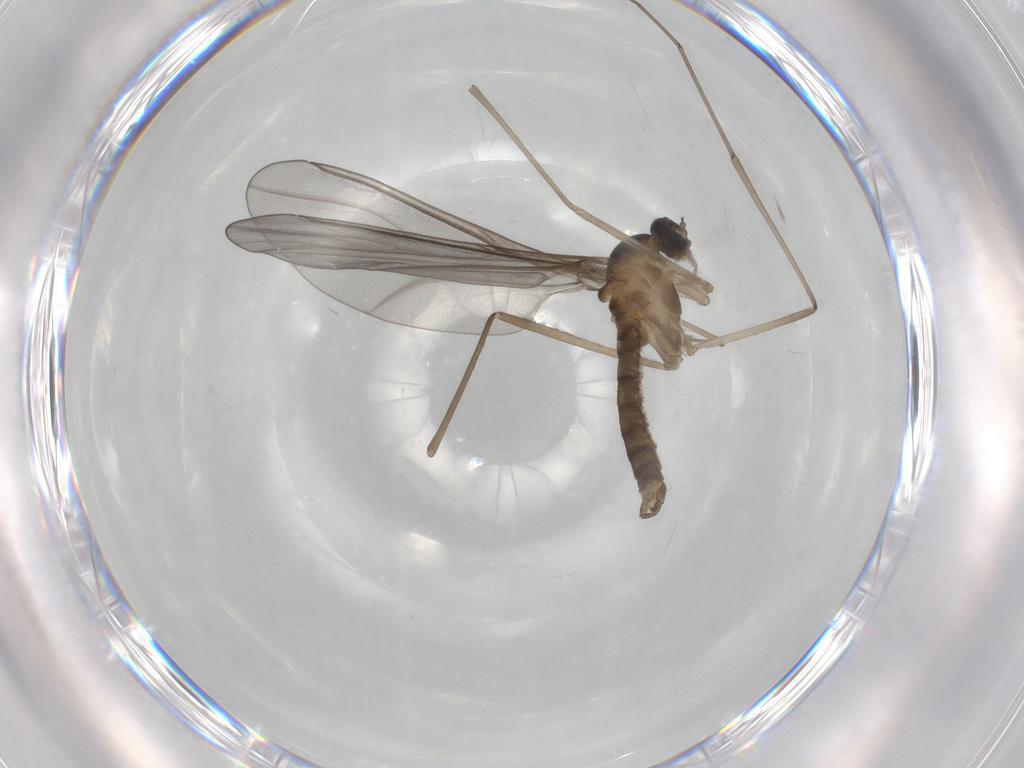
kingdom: Animalia
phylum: Arthropoda
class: Insecta
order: Diptera
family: Cecidomyiidae
